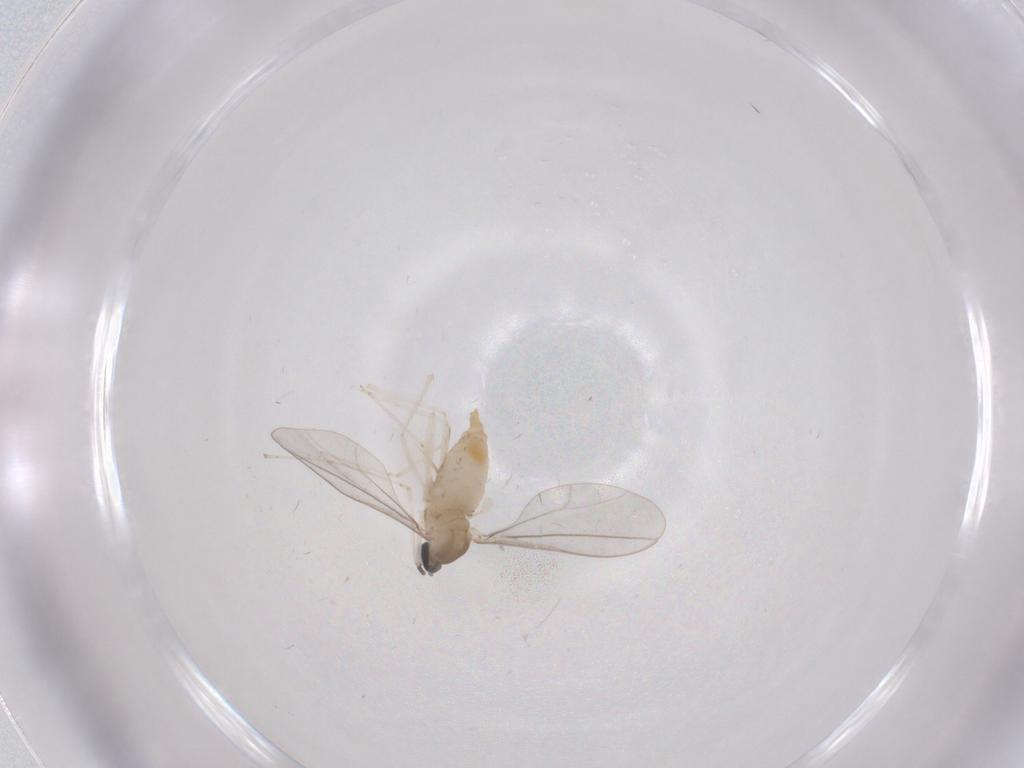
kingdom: Animalia
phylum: Arthropoda
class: Insecta
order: Diptera
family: Cecidomyiidae
